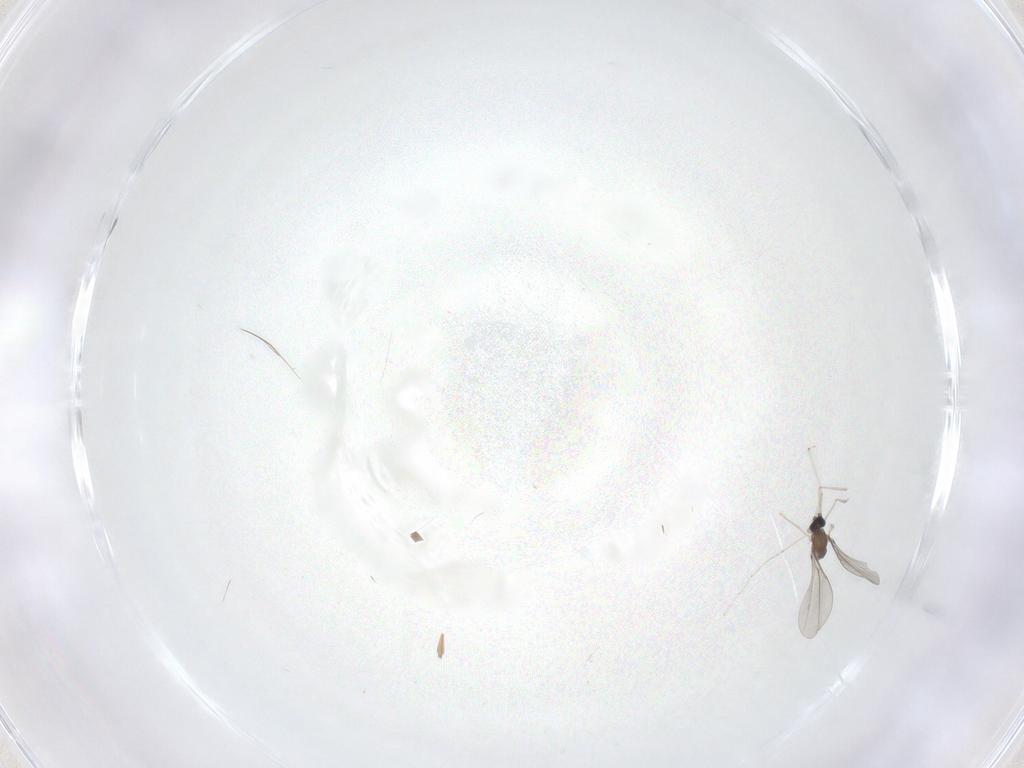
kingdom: Animalia
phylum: Arthropoda
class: Insecta
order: Diptera
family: Cecidomyiidae
